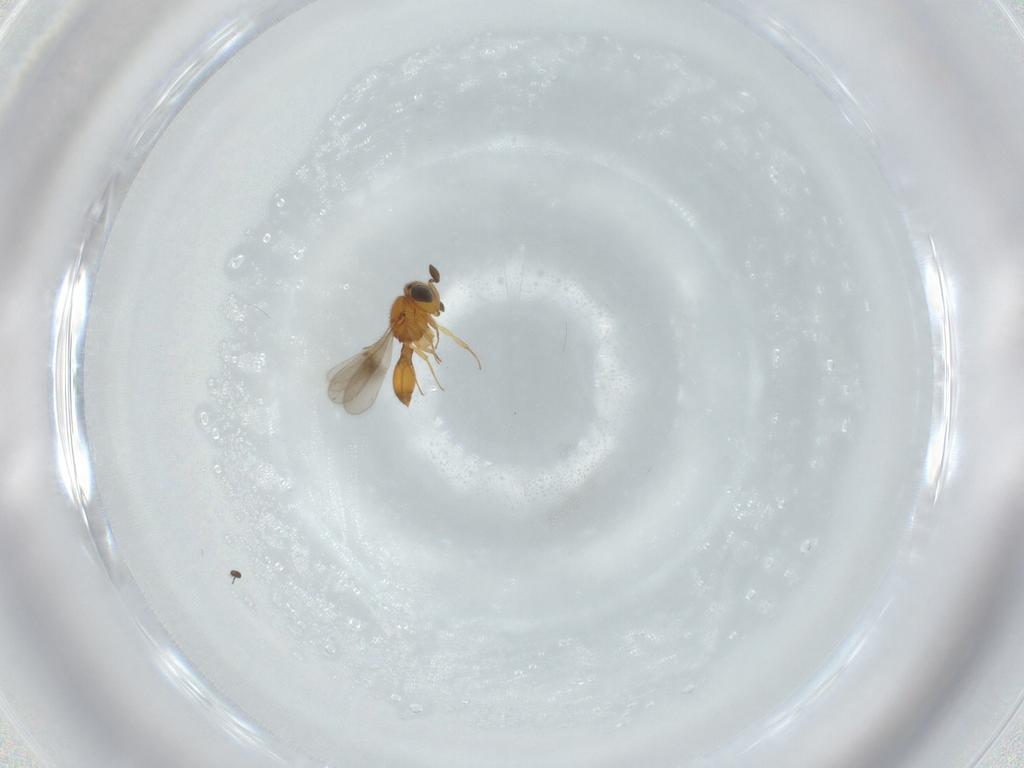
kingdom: Animalia
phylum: Arthropoda
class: Insecta
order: Hymenoptera
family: Scelionidae
